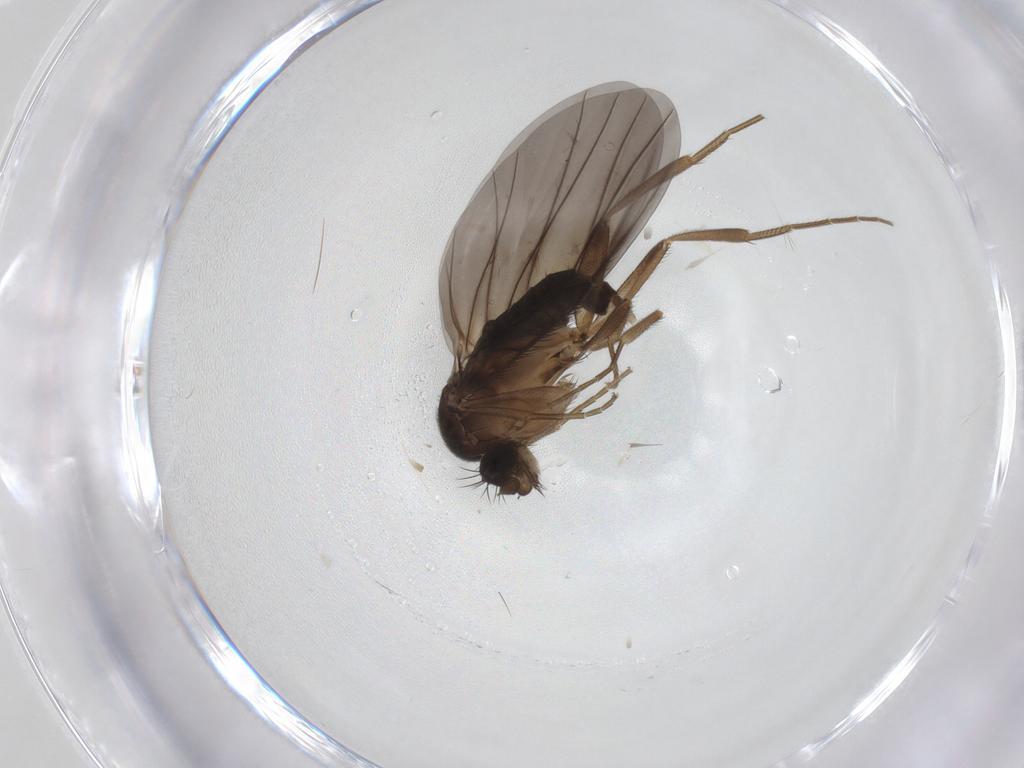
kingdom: Animalia
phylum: Arthropoda
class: Insecta
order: Diptera
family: Phoridae
